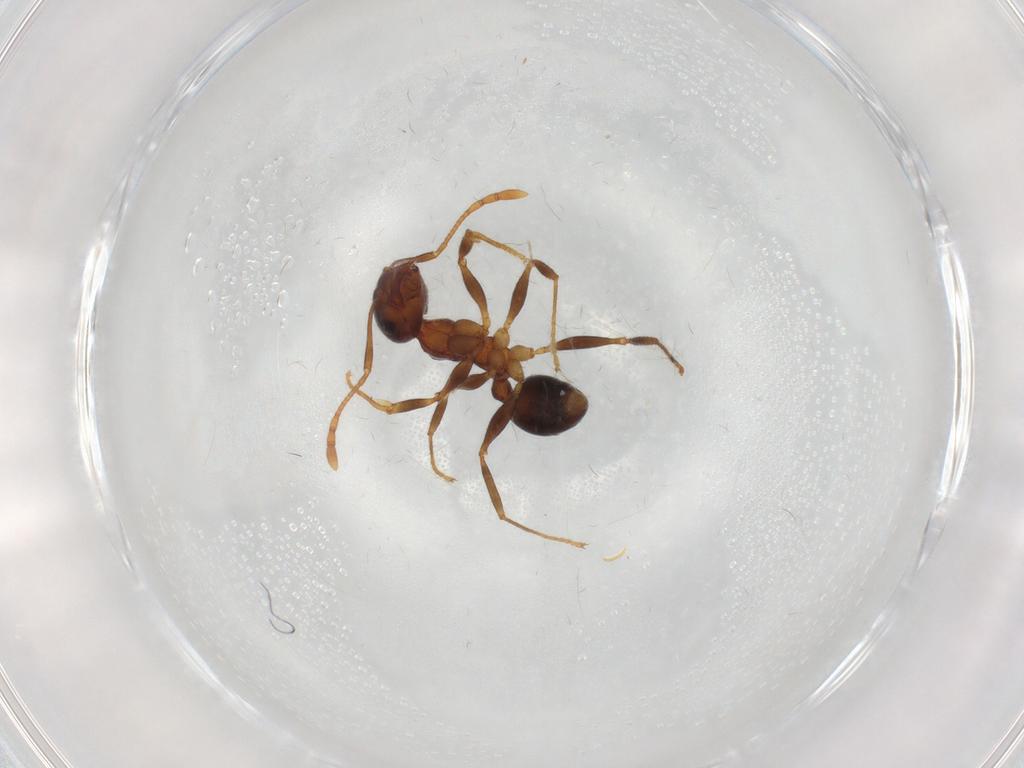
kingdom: Animalia
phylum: Arthropoda
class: Insecta
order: Hymenoptera
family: Formicidae
